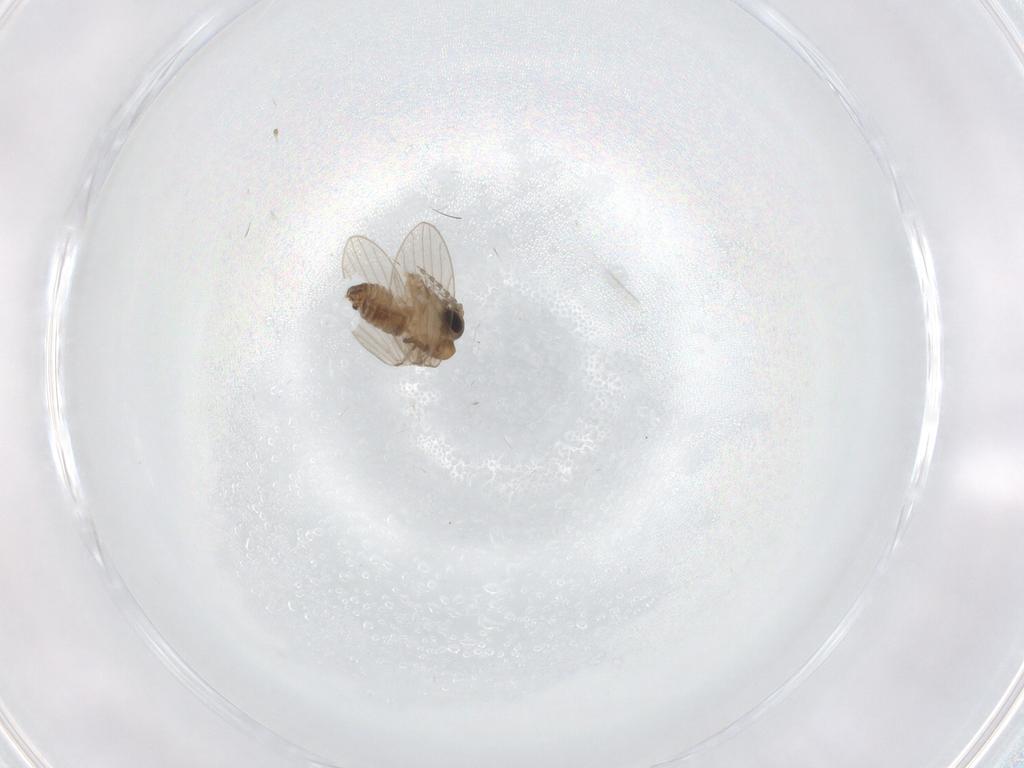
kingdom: Animalia
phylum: Arthropoda
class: Insecta
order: Diptera
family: Psychodidae
